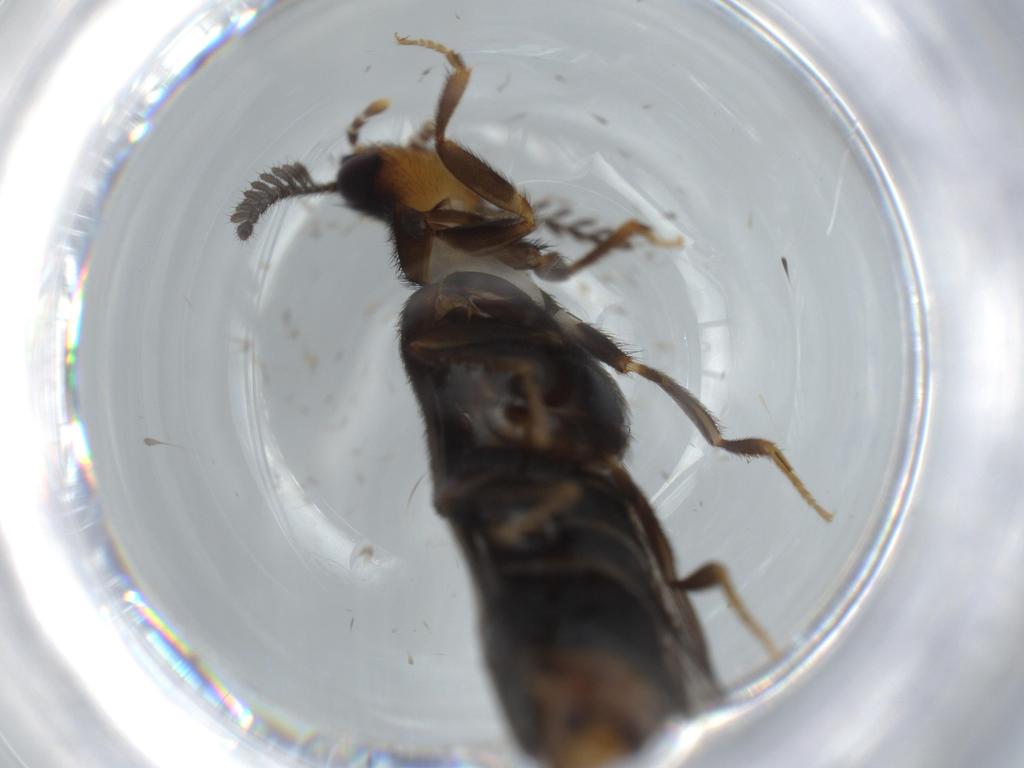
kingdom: Animalia
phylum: Arthropoda
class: Insecta
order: Coleoptera
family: Phengodidae
